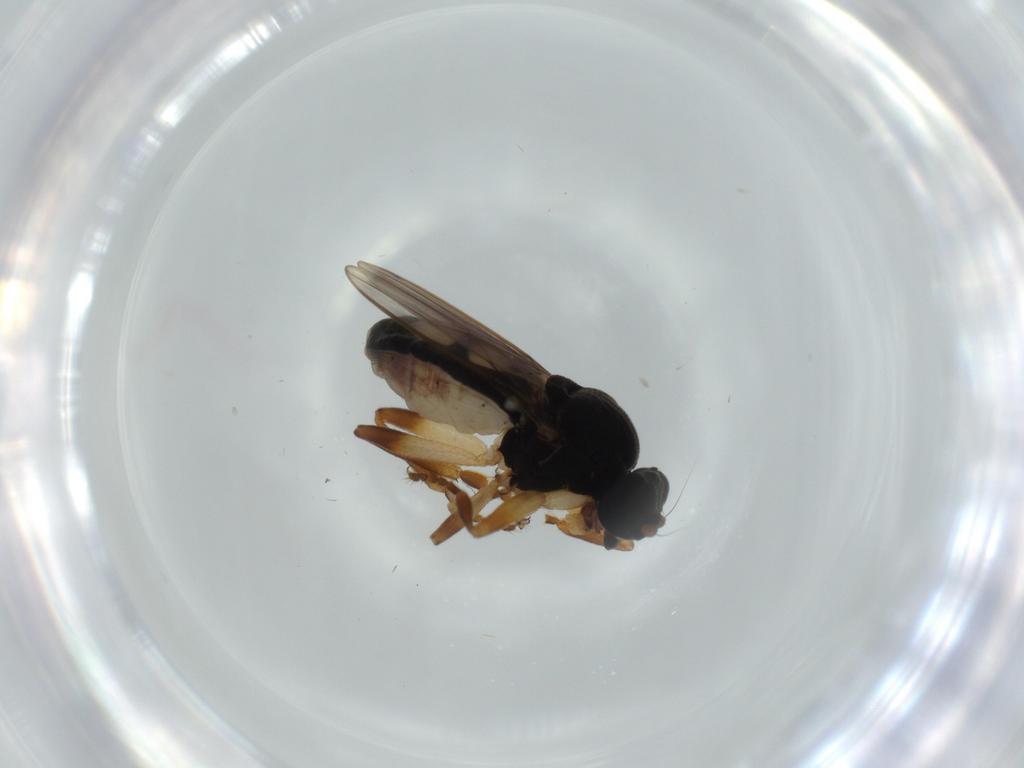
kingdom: Animalia
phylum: Arthropoda
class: Insecta
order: Diptera
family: Sphaeroceridae
